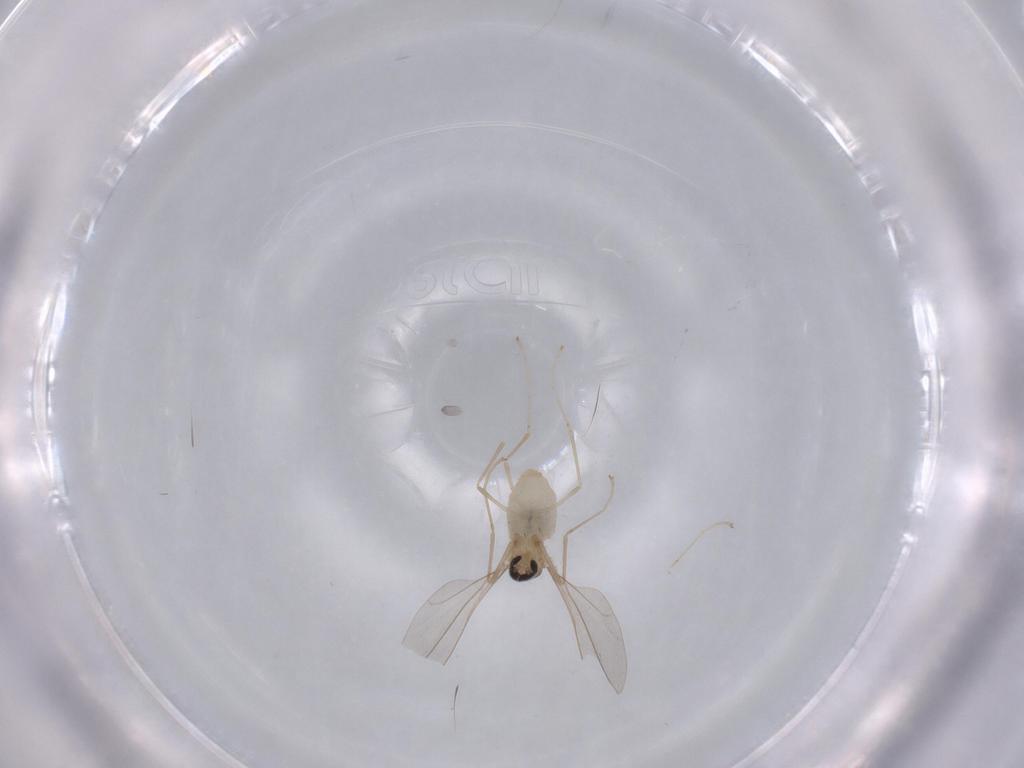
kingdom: Animalia
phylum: Arthropoda
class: Insecta
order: Diptera
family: Cecidomyiidae
